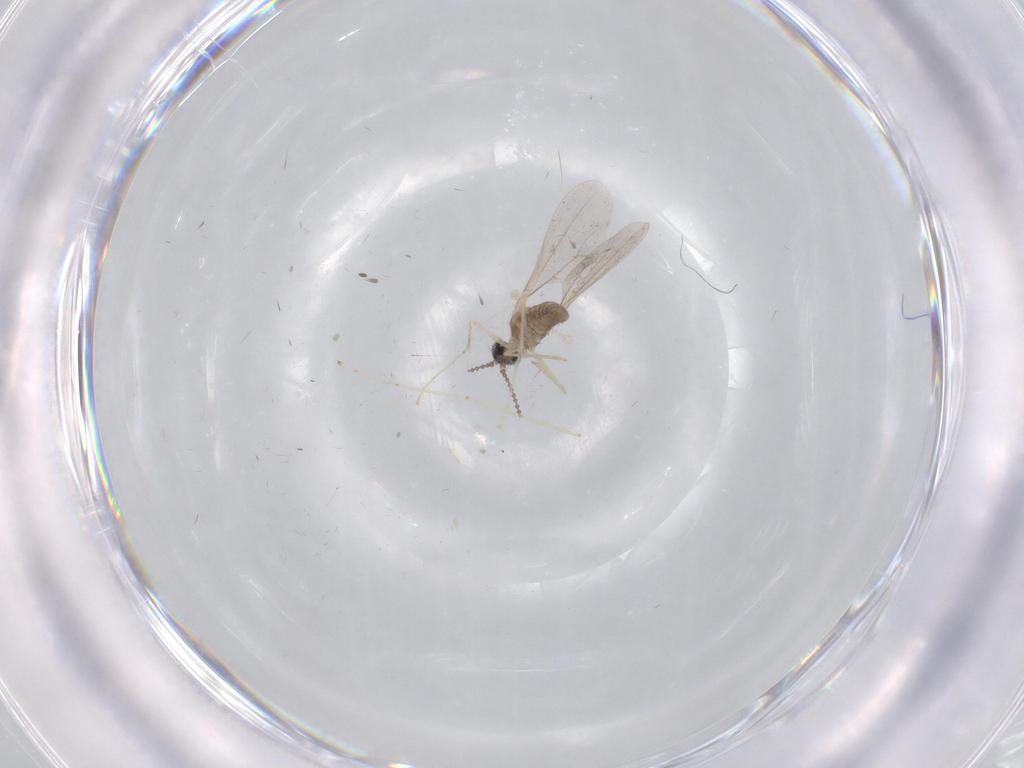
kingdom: Animalia
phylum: Arthropoda
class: Insecta
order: Diptera
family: Cecidomyiidae
